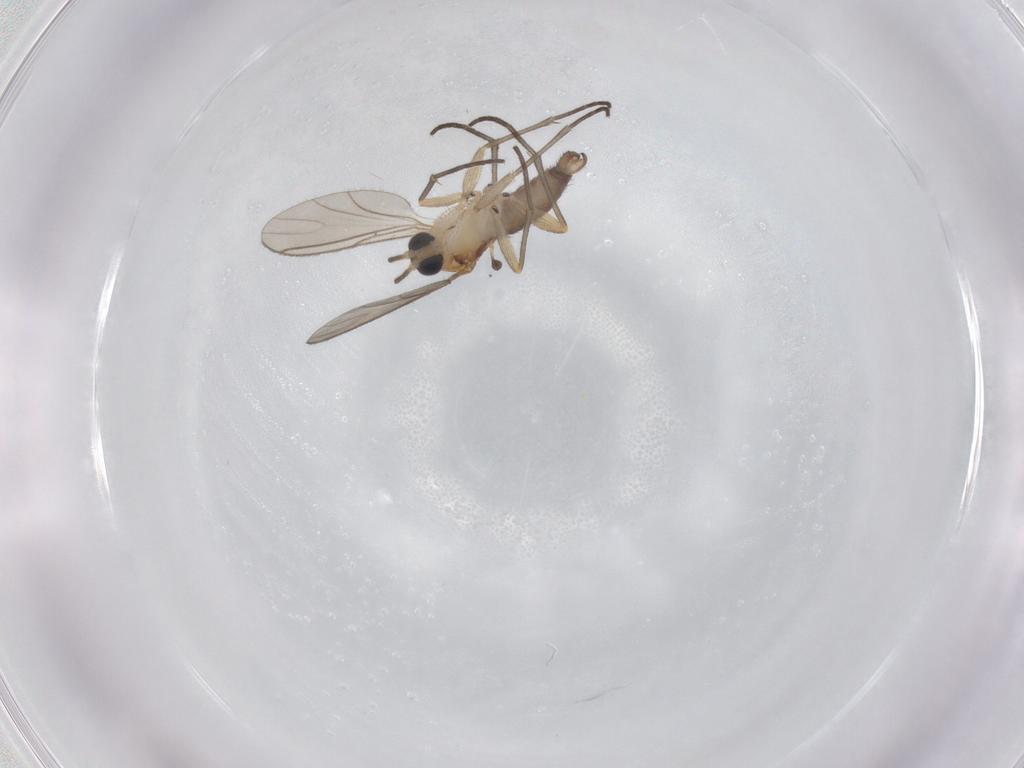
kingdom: Animalia
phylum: Arthropoda
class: Insecta
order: Diptera
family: Sciaridae
